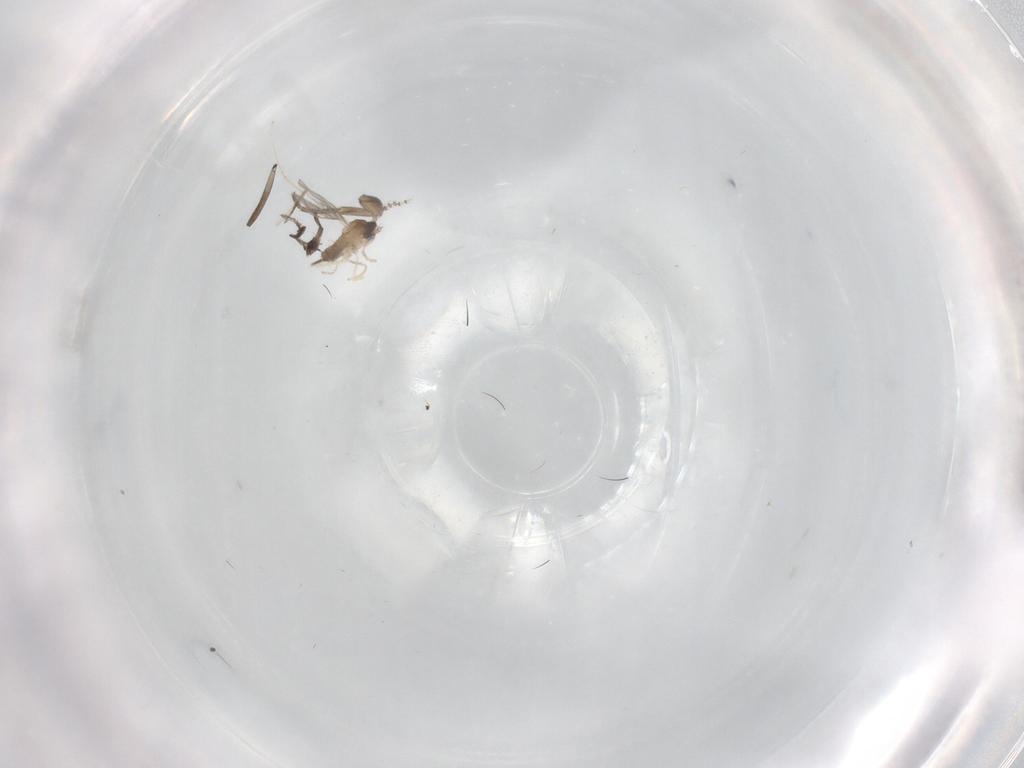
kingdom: Animalia
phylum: Arthropoda
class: Insecta
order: Diptera
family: Cecidomyiidae
